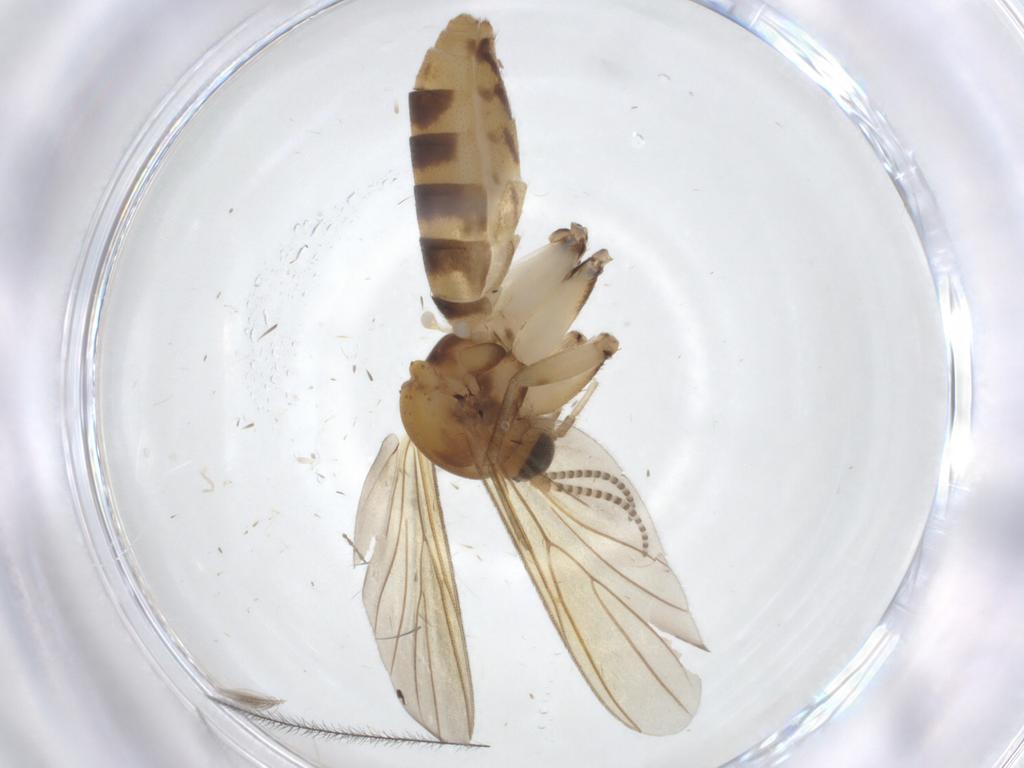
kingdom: Animalia
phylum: Arthropoda
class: Insecta
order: Diptera
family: Mycetophilidae
